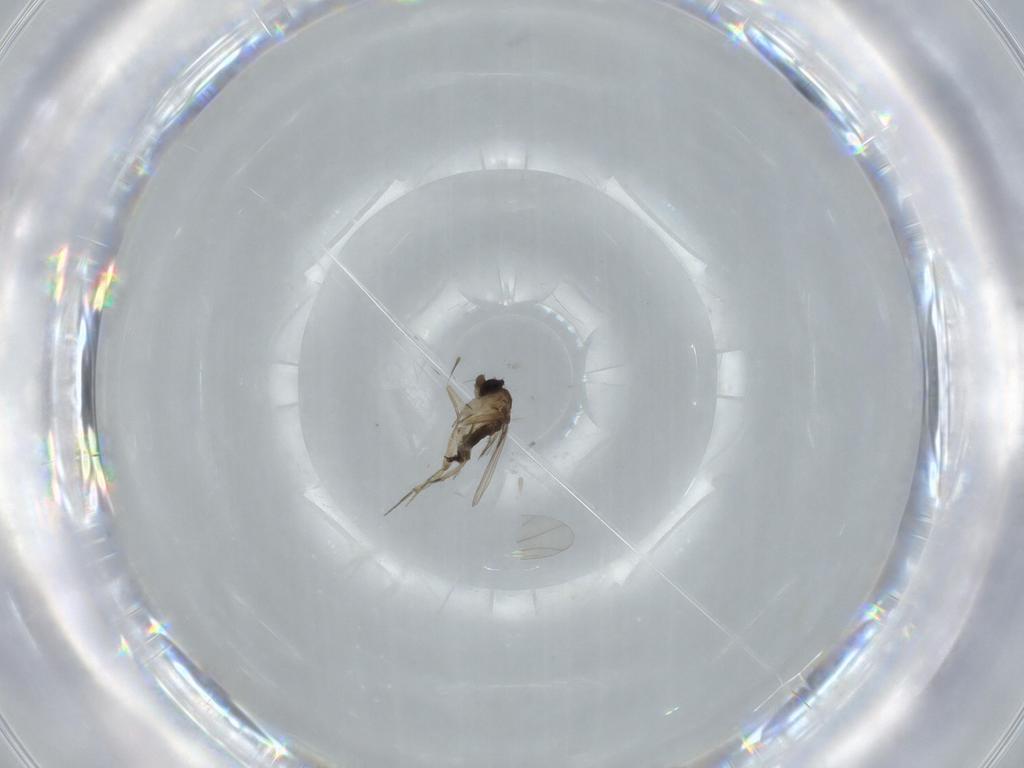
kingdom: Animalia
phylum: Arthropoda
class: Insecta
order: Diptera
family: Phoridae
